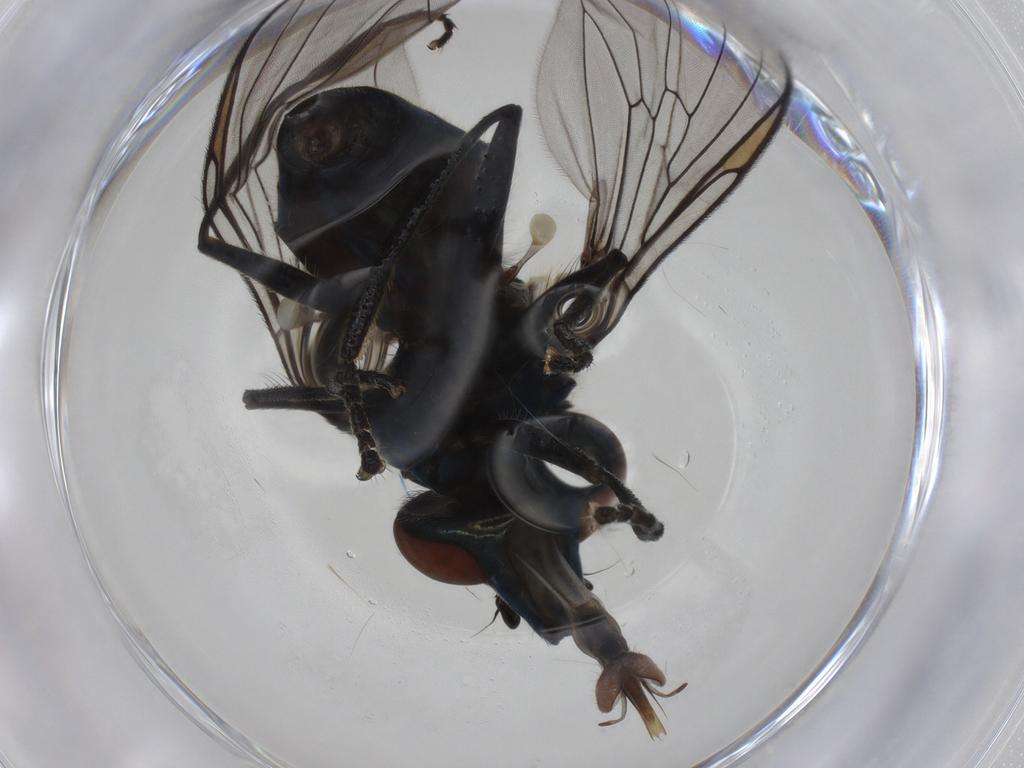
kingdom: Animalia
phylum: Arthropoda
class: Insecta
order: Diptera
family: Syrphidae
